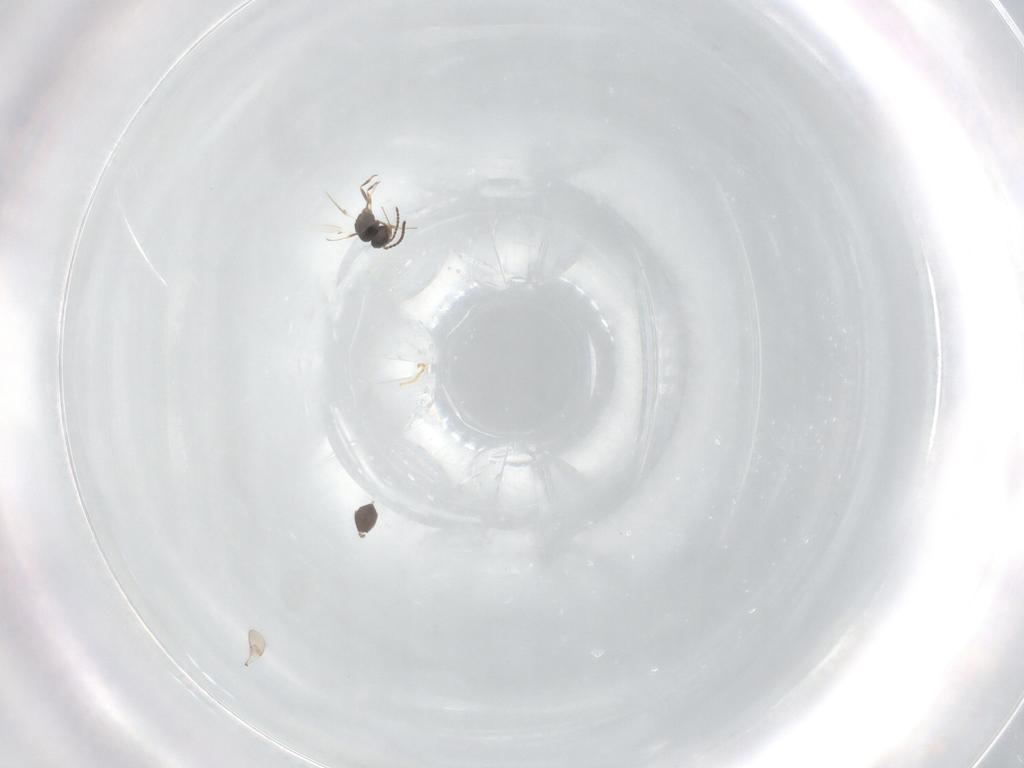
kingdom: Animalia
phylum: Arthropoda
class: Insecta
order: Hymenoptera
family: Scelionidae
